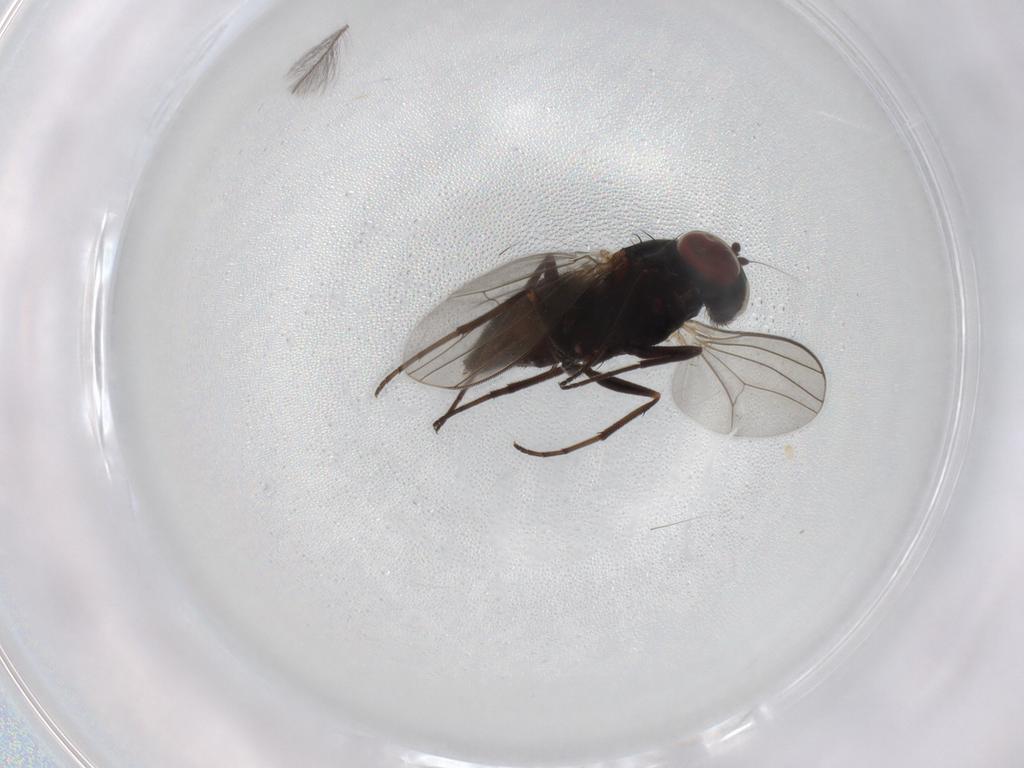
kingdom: Animalia
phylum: Arthropoda
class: Insecta
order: Diptera
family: Chironomidae
